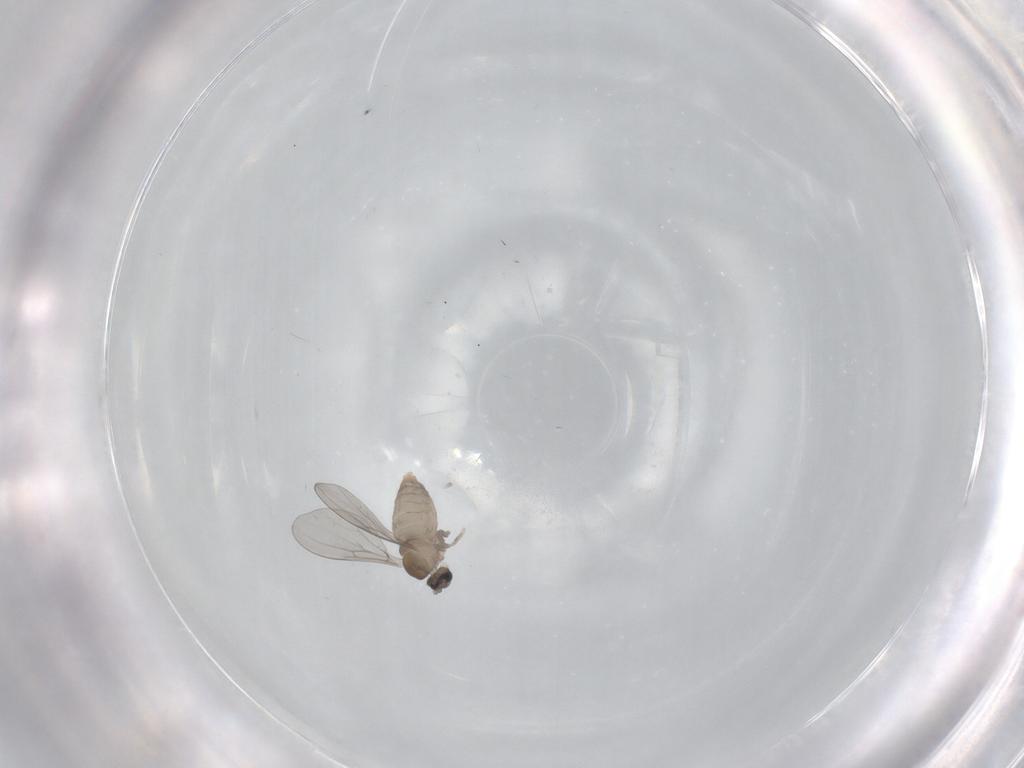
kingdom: Animalia
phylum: Arthropoda
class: Insecta
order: Diptera
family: Cecidomyiidae
